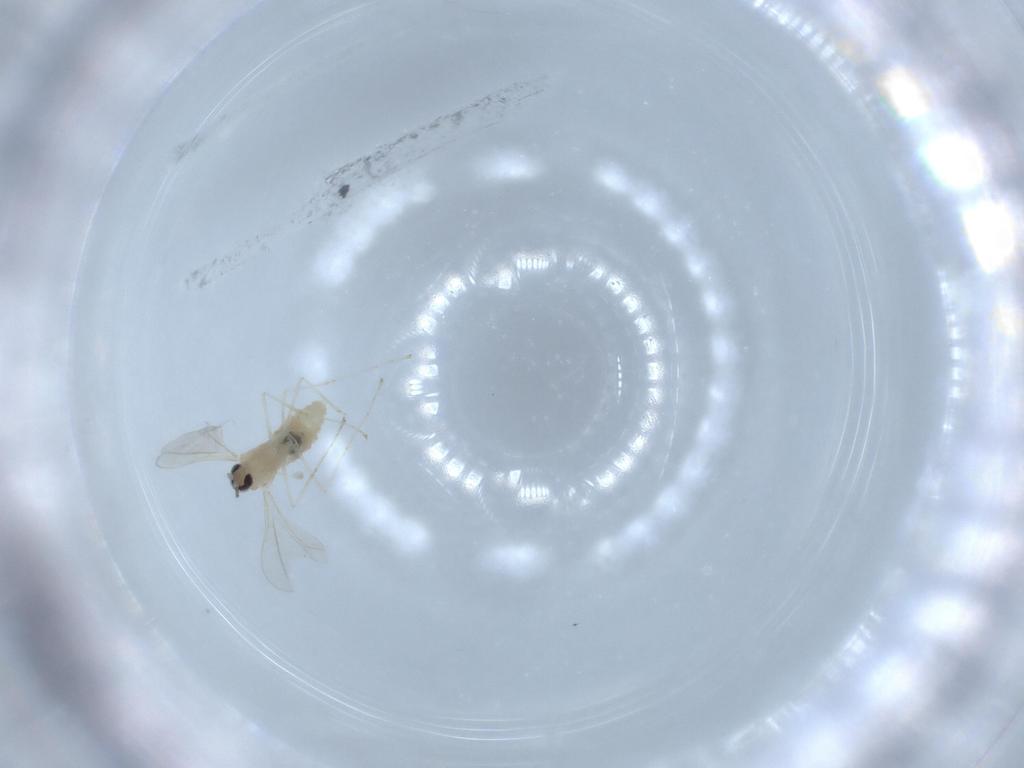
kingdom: Animalia
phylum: Arthropoda
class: Insecta
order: Diptera
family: Cecidomyiidae
